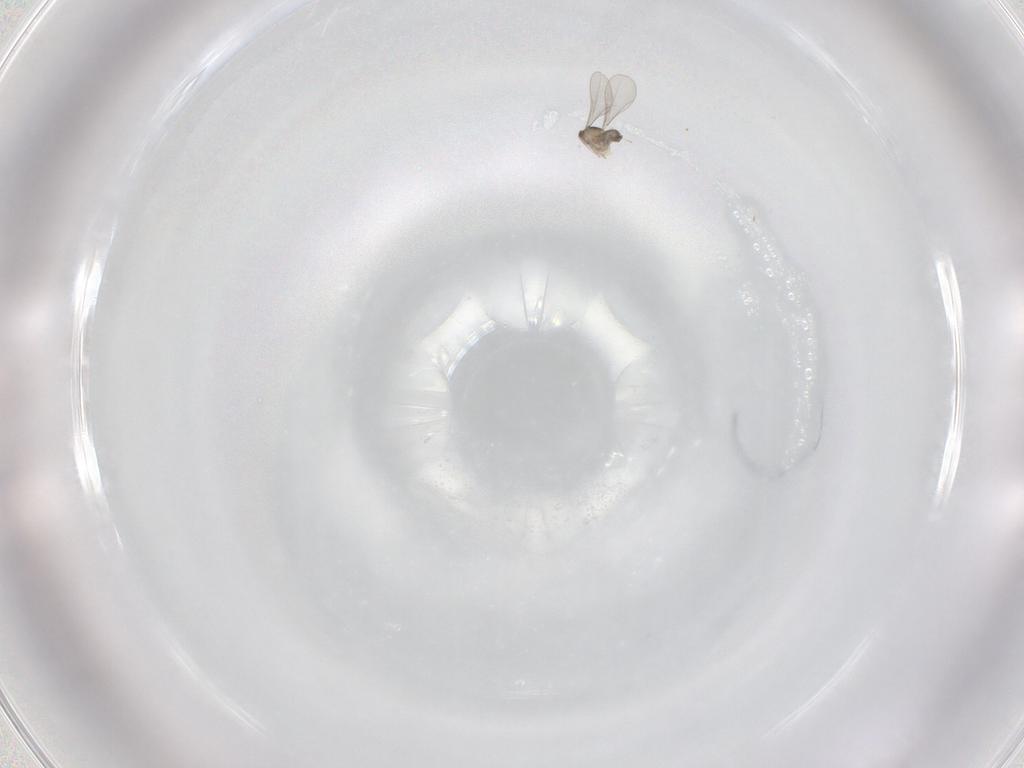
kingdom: Animalia
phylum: Arthropoda
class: Insecta
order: Diptera
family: Cecidomyiidae
